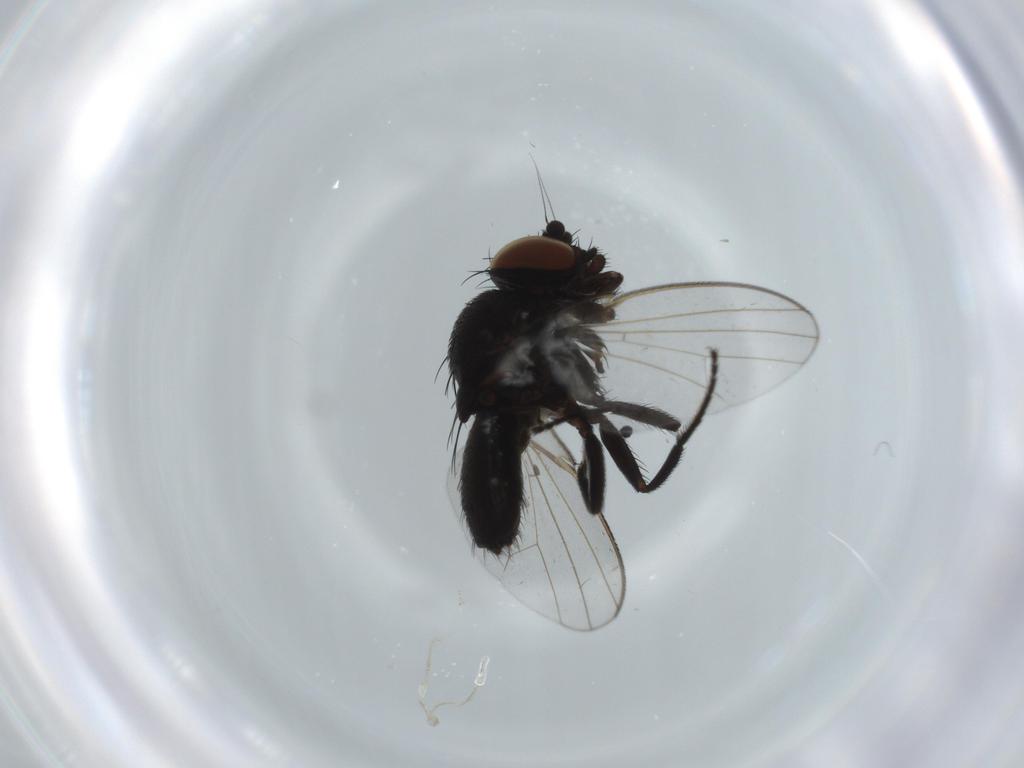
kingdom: Animalia
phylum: Arthropoda
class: Insecta
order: Diptera
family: Milichiidae
